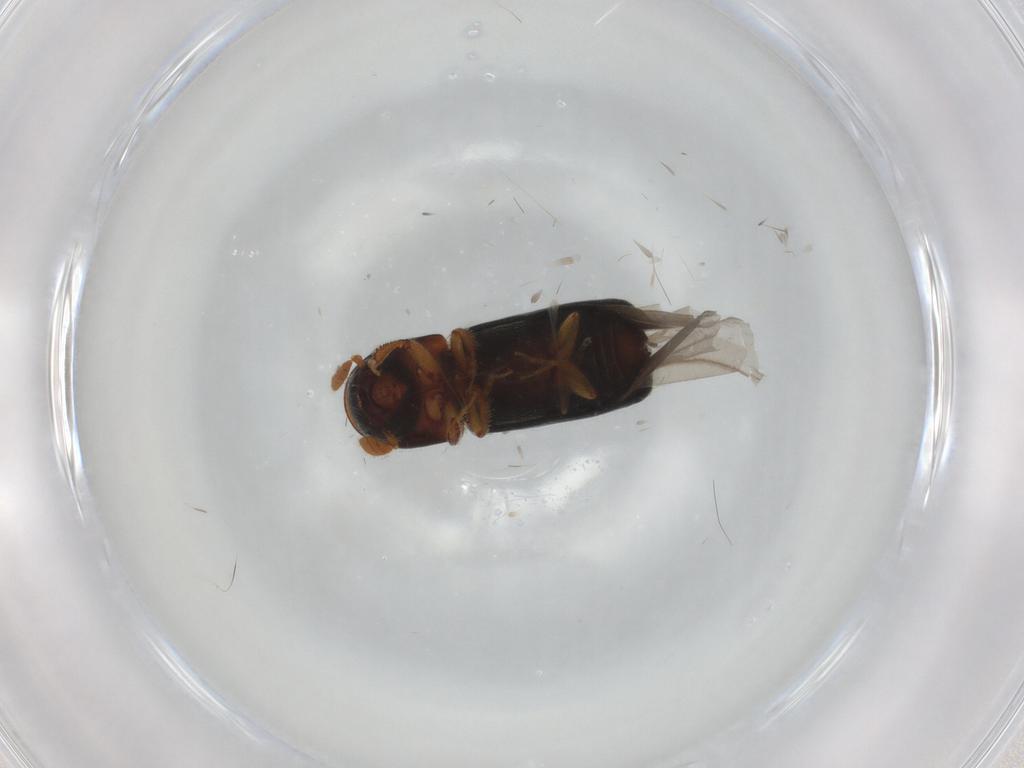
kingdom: Animalia
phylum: Arthropoda
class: Insecta
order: Coleoptera
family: Curculionidae
